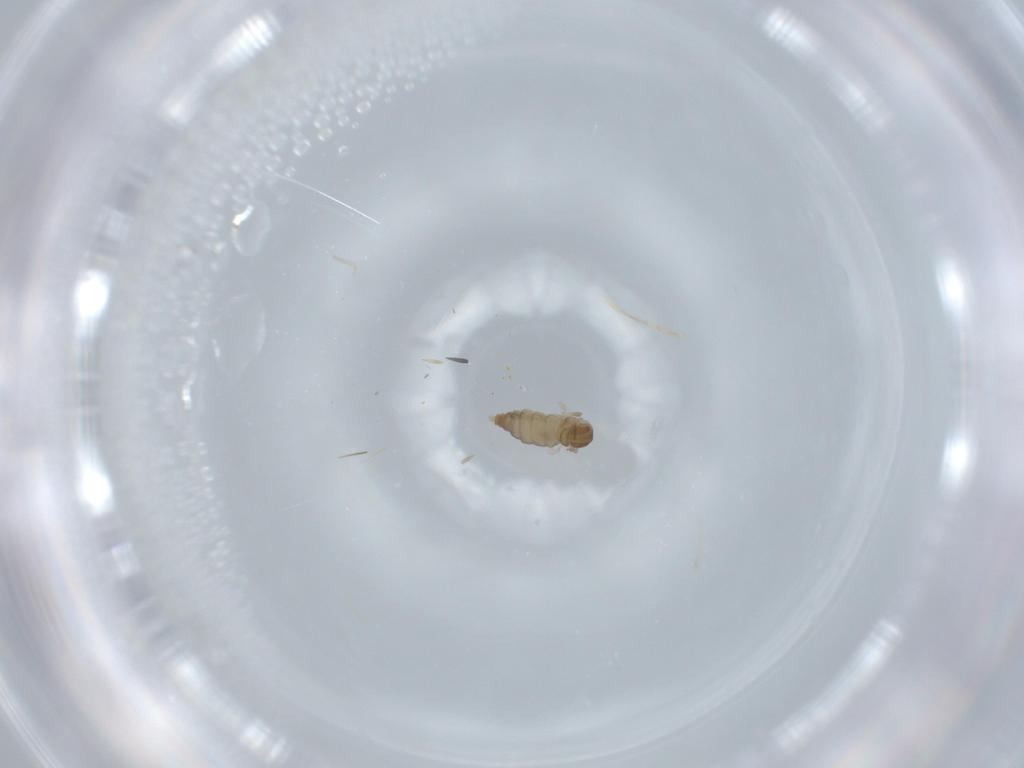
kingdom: Animalia
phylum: Arthropoda
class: Insecta
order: Diptera
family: Cecidomyiidae
